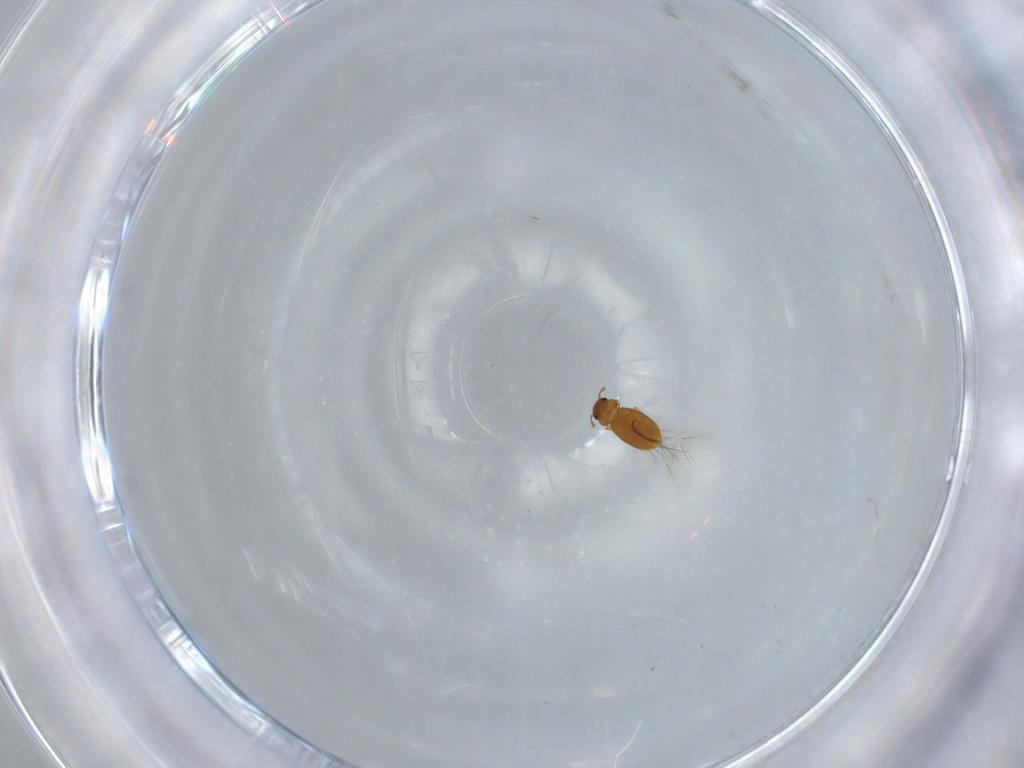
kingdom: Animalia
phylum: Arthropoda
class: Insecta
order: Coleoptera
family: Ptiliidae
